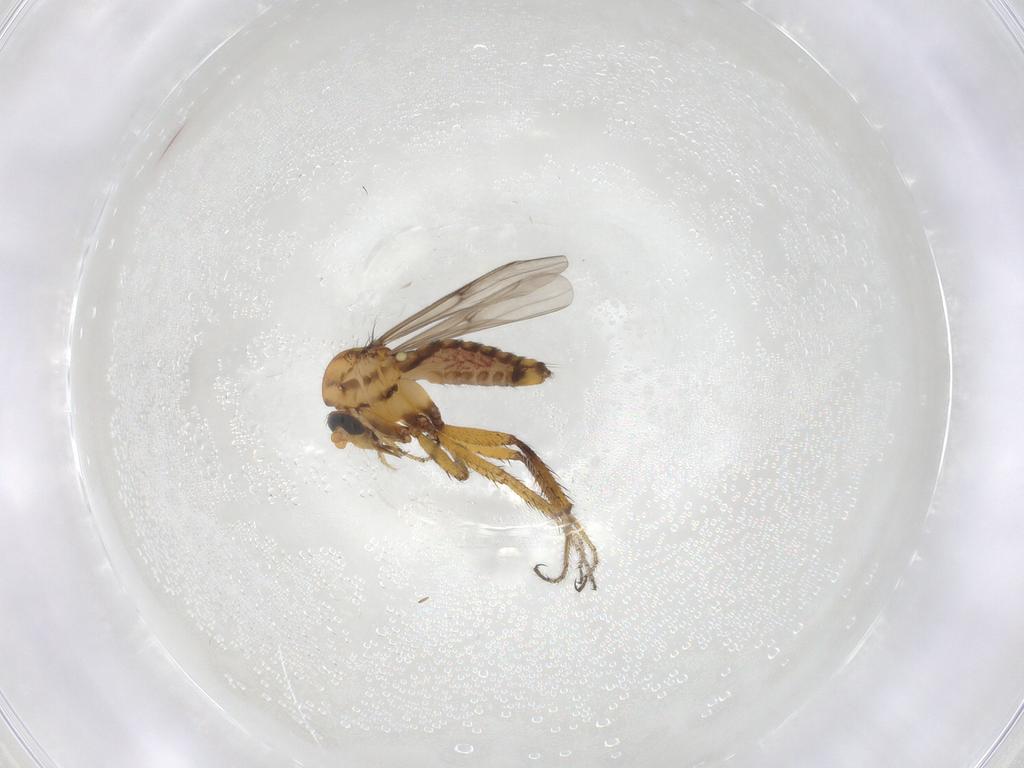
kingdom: Animalia
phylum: Arthropoda
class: Insecta
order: Diptera
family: Ceratopogonidae
